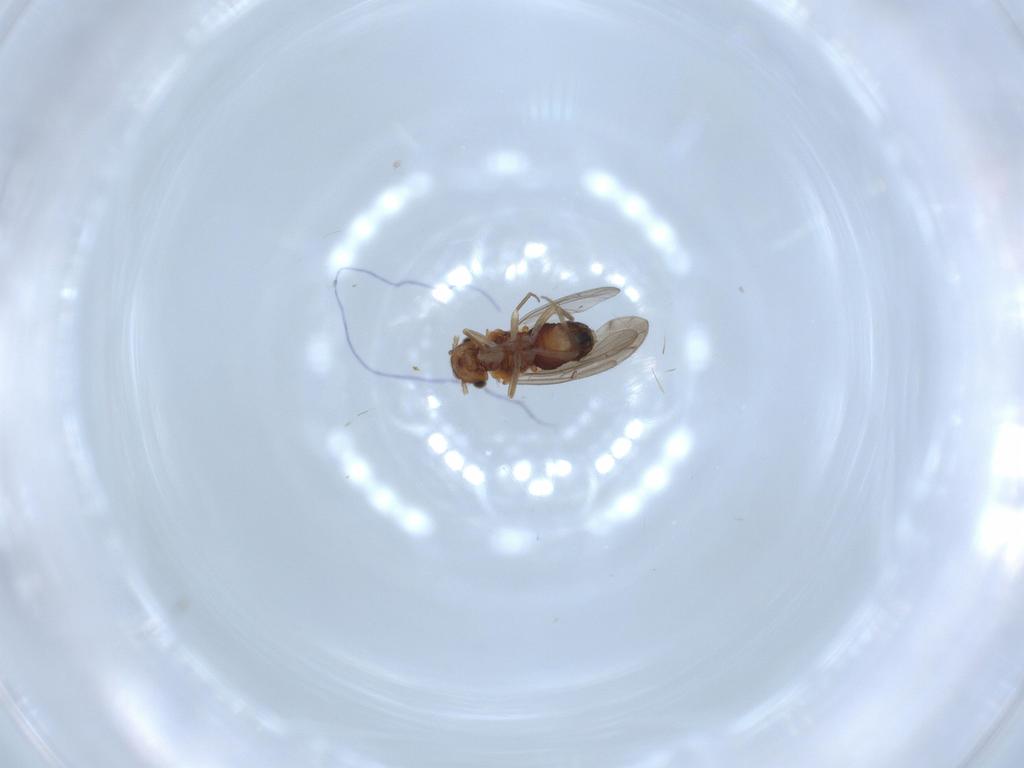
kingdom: Animalia
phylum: Arthropoda
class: Insecta
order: Psocodea
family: Ectopsocidae
